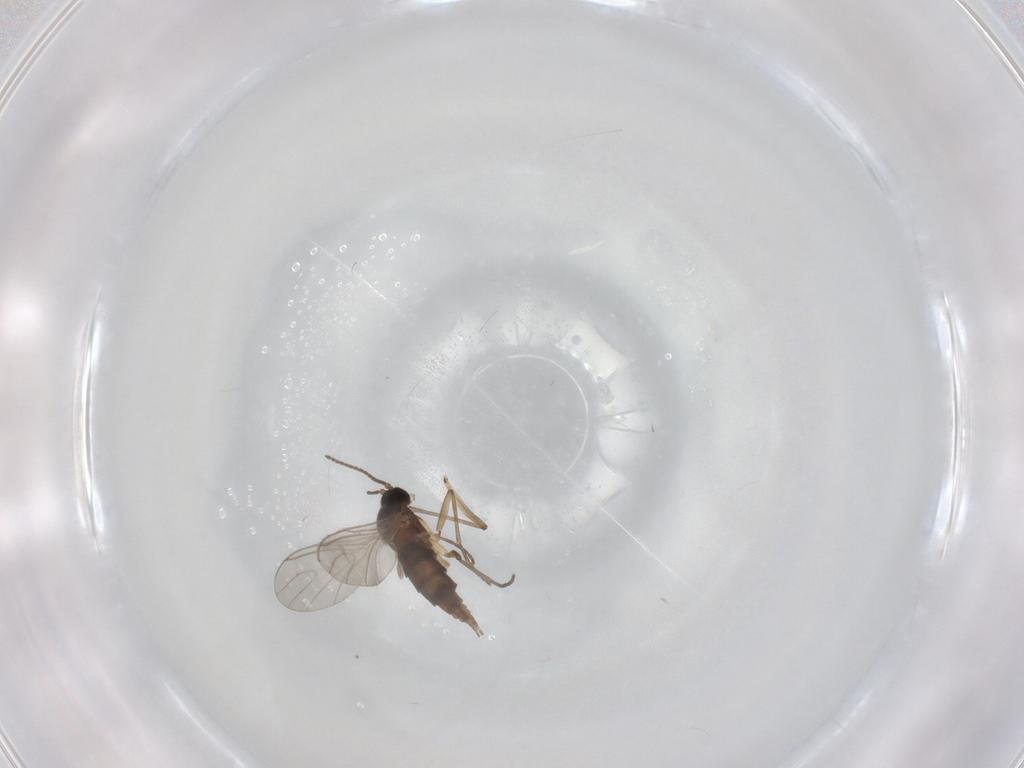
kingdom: Animalia
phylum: Arthropoda
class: Insecta
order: Diptera
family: Sciaridae
